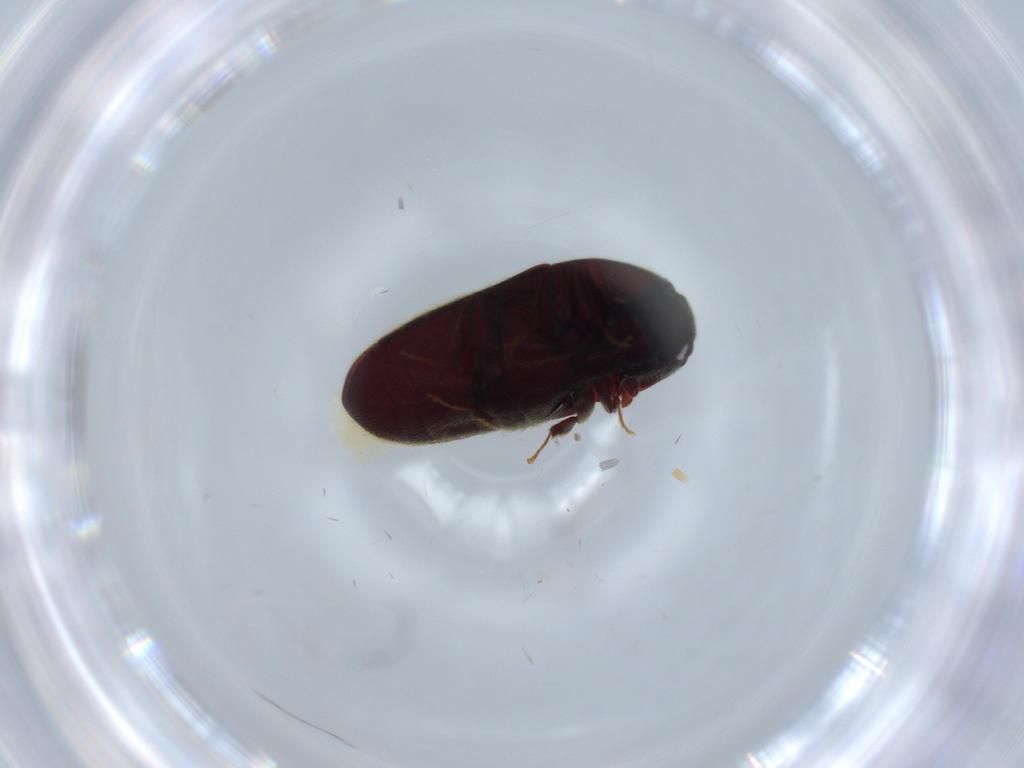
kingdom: Animalia
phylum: Arthropoda
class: Insecta
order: Coleoptera
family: Throscidae
